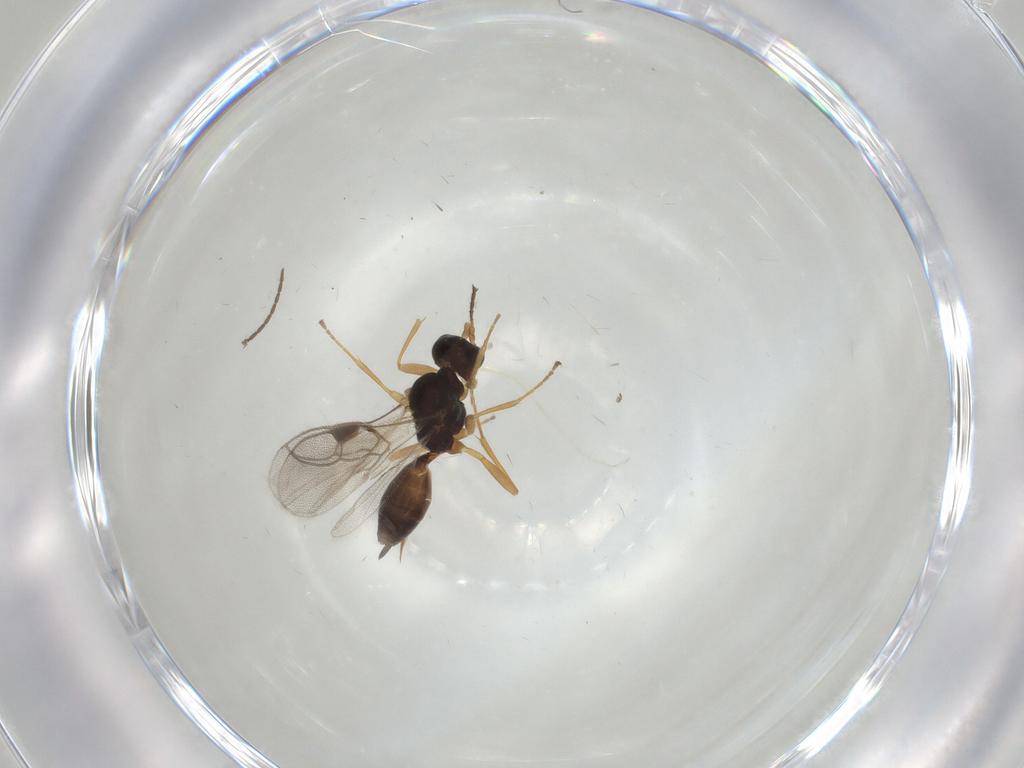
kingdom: Animalia
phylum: Arthropoda
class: Insecta
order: Hymenoptera
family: Braconidae
